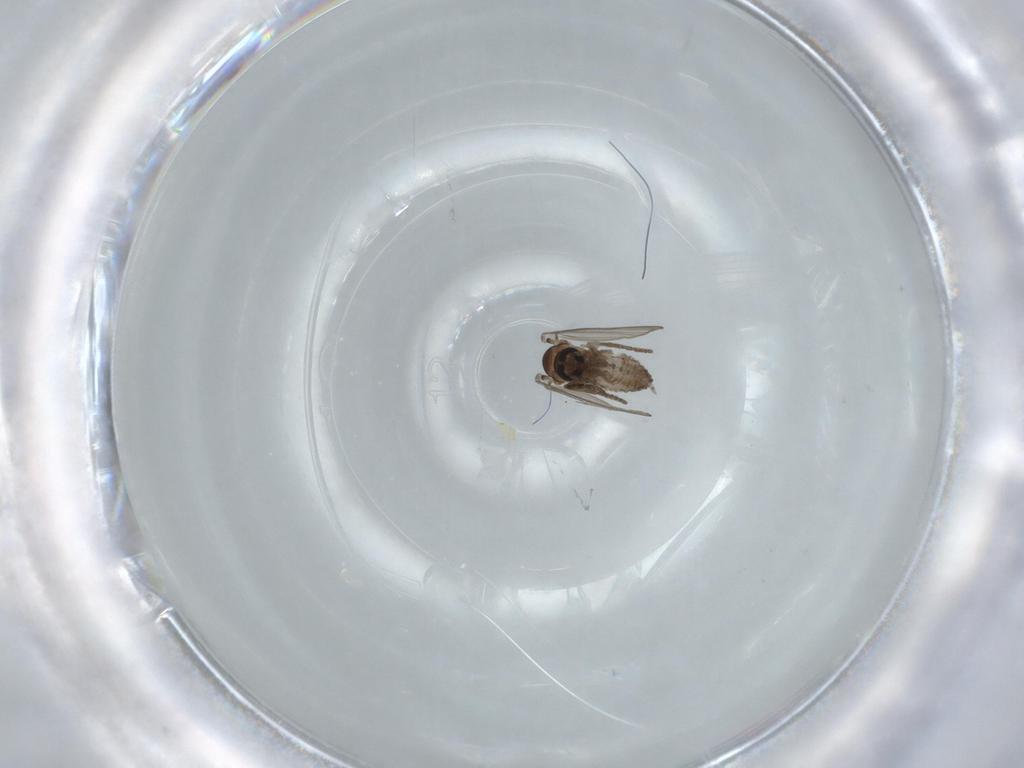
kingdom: Animalia
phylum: Arthropoda
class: Insecta
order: Diptera
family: Psychodidae
